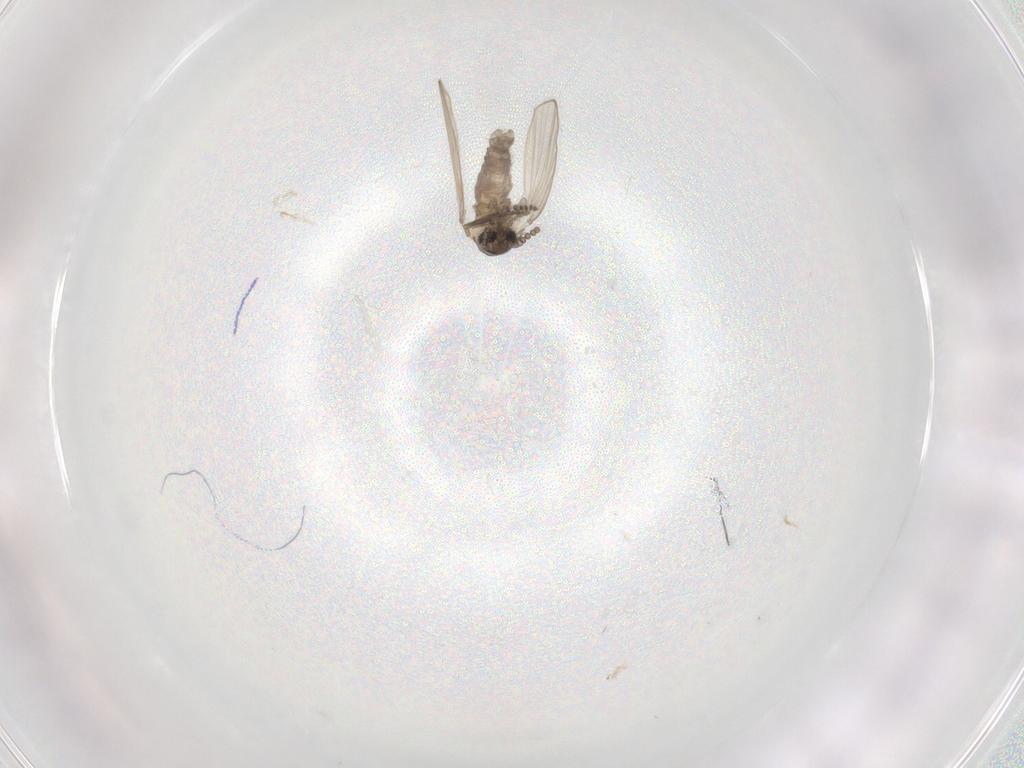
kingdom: Animalia
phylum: Arthropoda
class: Insecta
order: Diptera
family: Psychodidae
